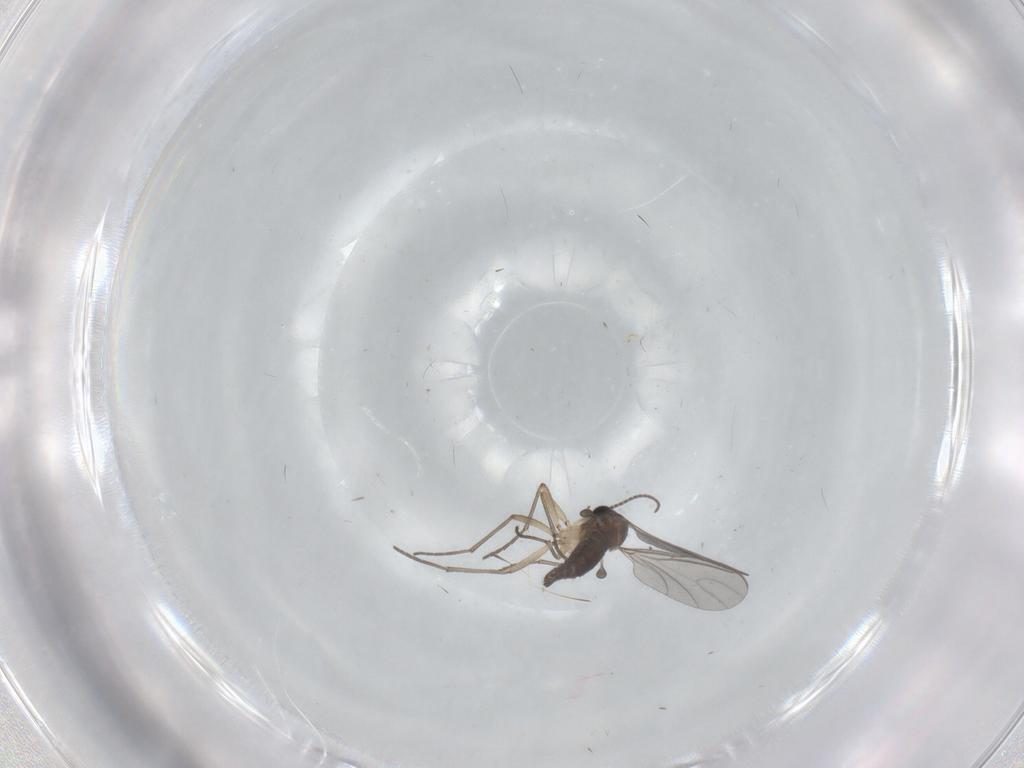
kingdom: Animalia
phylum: Arthropoda
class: Insecta
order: Diptera
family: Sciaridae
